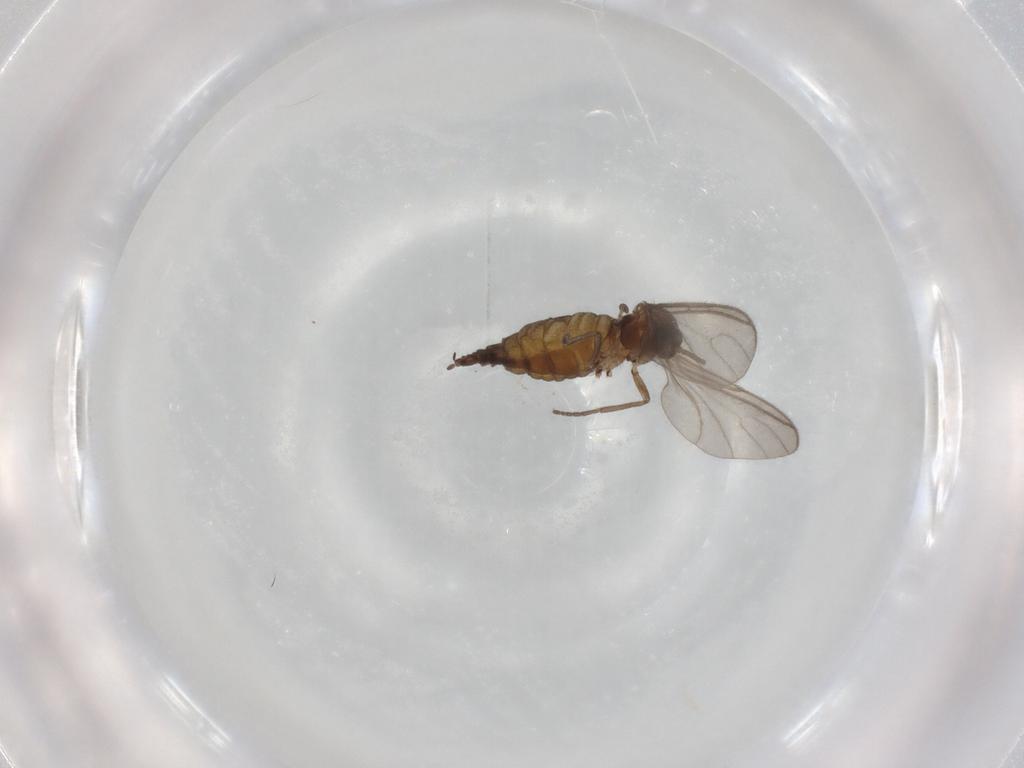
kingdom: Animalia
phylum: Arthropoda
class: Insecta
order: Diptera
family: Sciaridae
